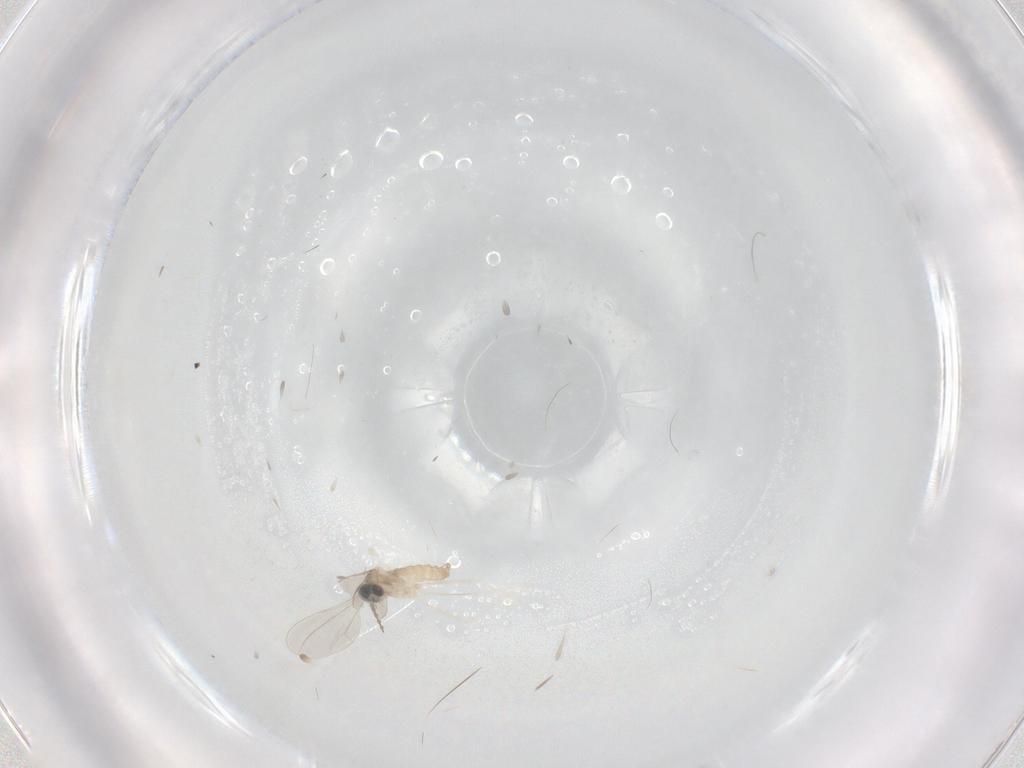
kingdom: Animalia
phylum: Arthropoda
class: Insecta
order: Diptera
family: Cecidomyiidae
